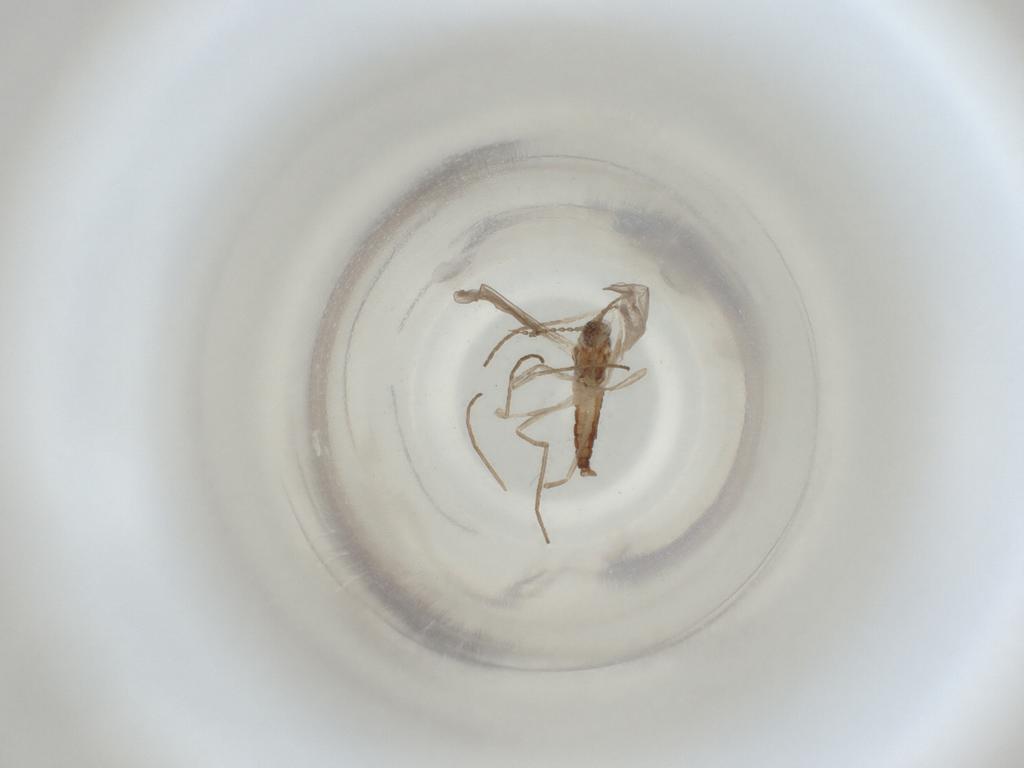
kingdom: Animalia
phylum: Arthropoda
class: Insecta
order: Diptera
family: Cecidomyiidae
